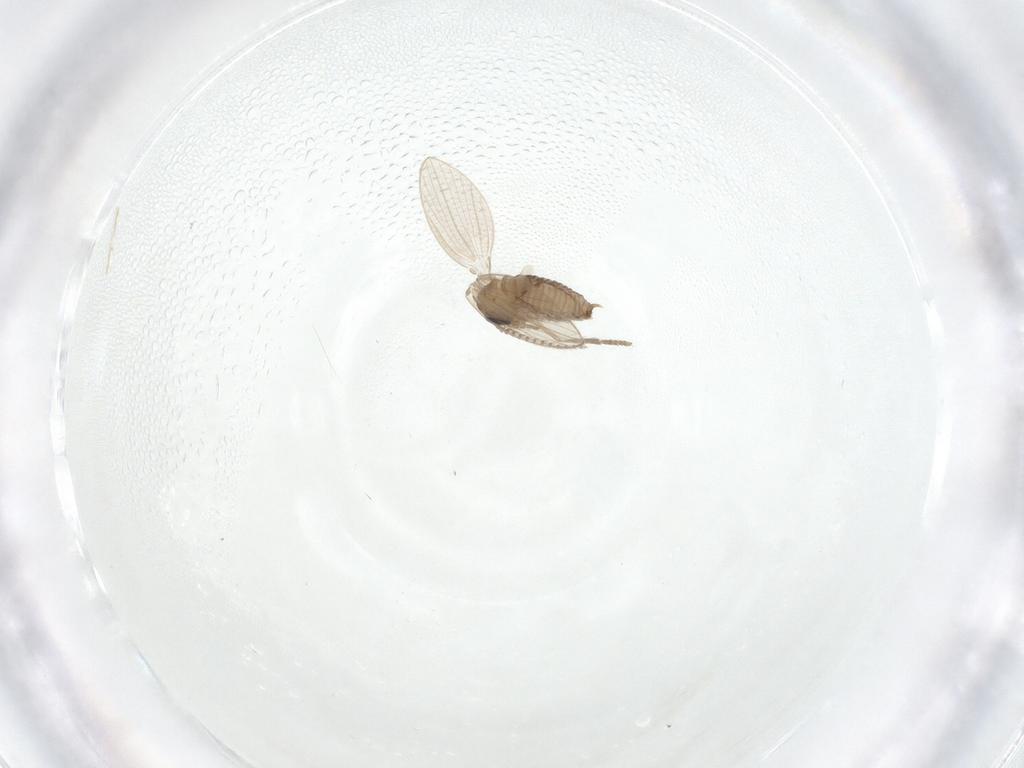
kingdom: Animalia
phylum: Arthropoda
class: Insecta
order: Diptera
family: Psychodidae
